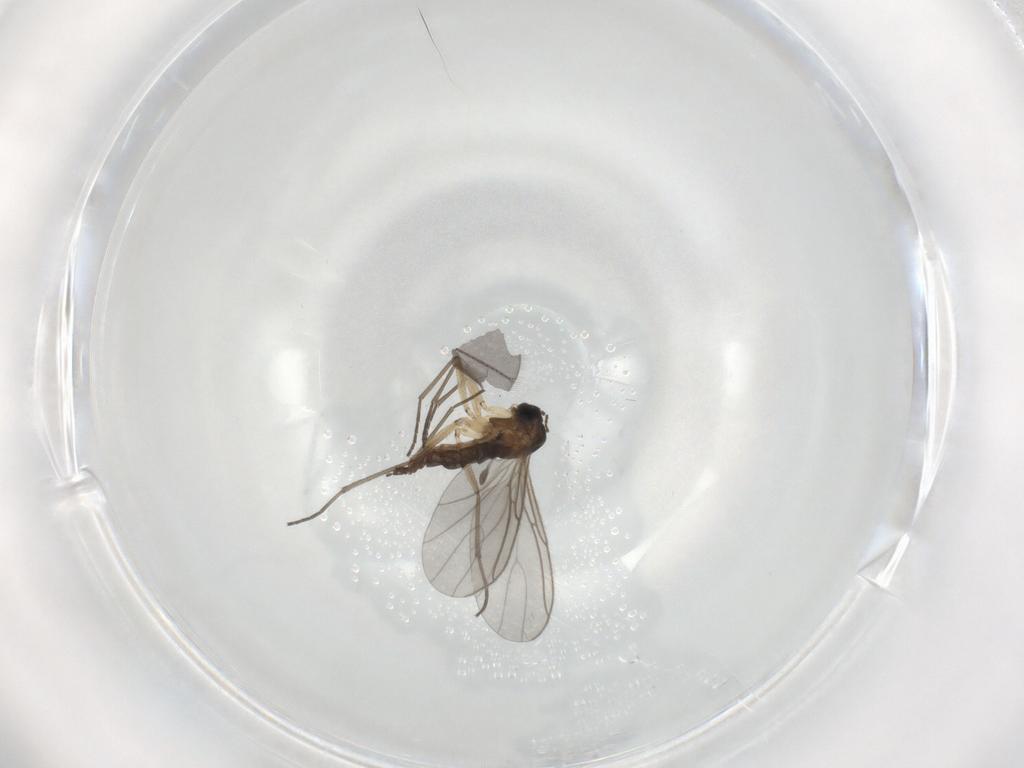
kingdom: Animalia
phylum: Arthropoda
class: Insecta
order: Diptera
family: Sciaridae
